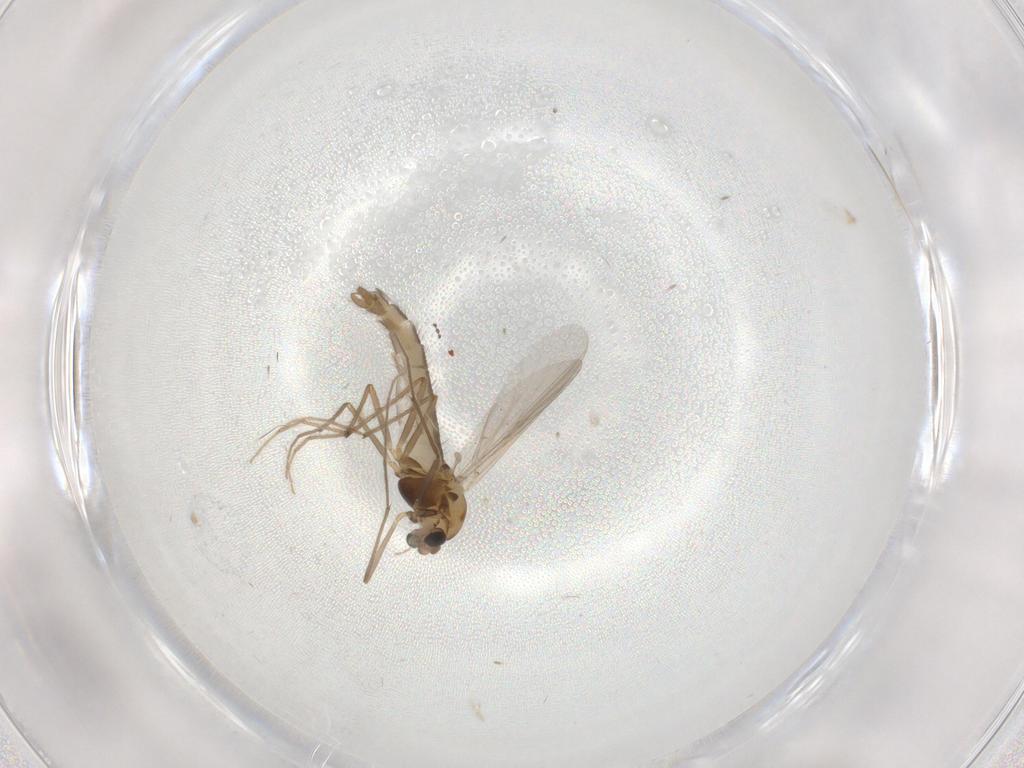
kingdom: Animalia
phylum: Arthropoda
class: Insecta
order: Diptera
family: Chironomidae
